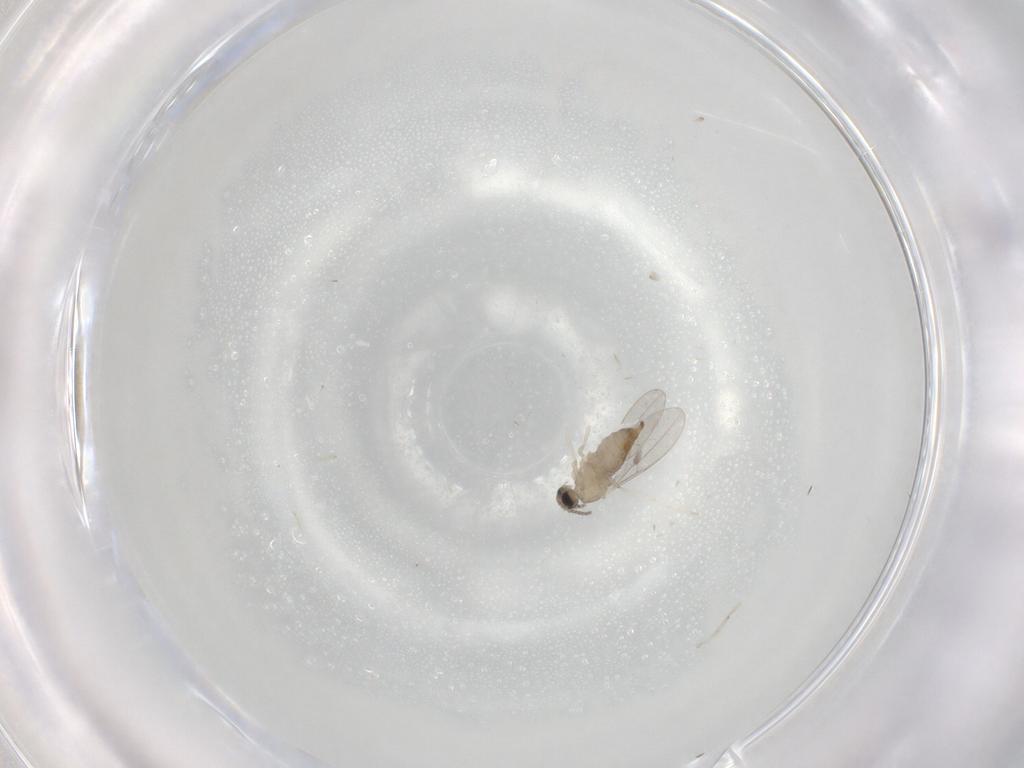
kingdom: Animalia
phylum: Arthropoda
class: Insecta
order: Diptera
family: Cecidomyiidae
